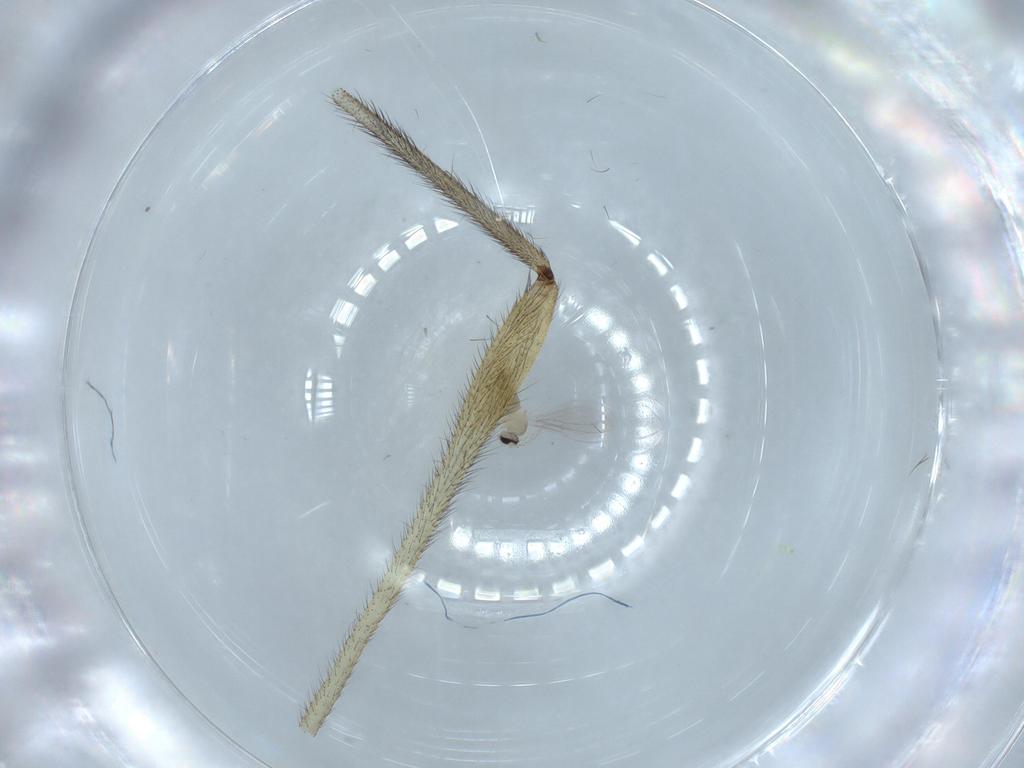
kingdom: Animalia
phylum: Arthropoda
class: Insecta
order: Diptera
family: Limoniidae
